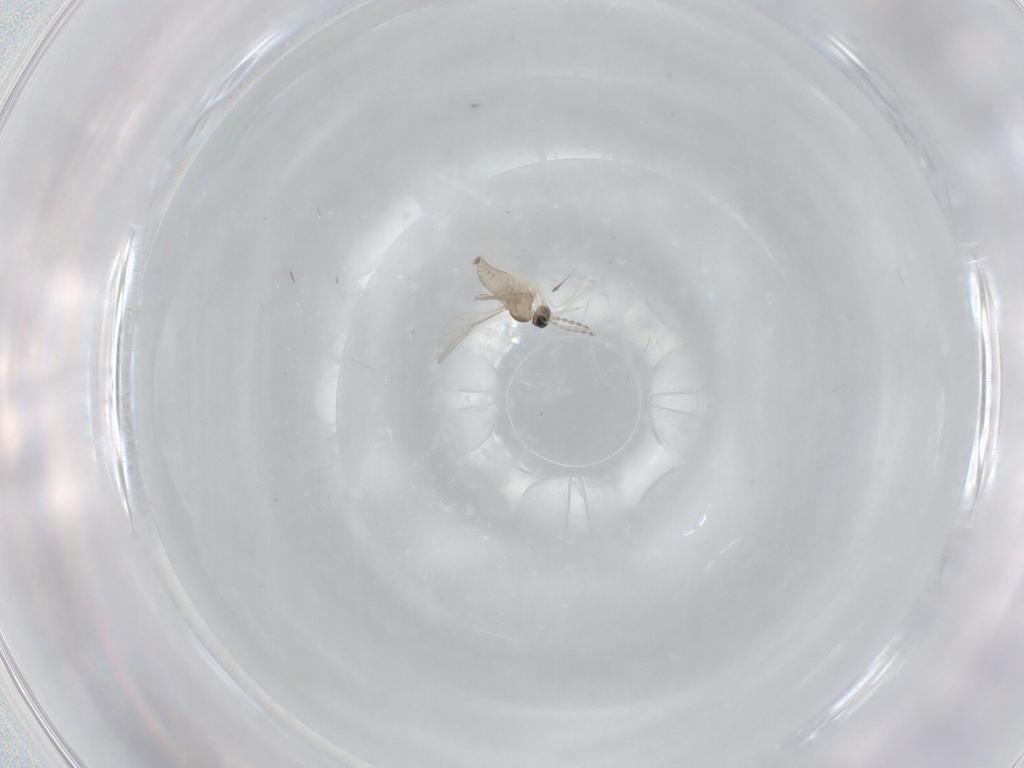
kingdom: Animalia
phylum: Arthropoda
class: Insecta
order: Diptera
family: Cecidomyiidae
